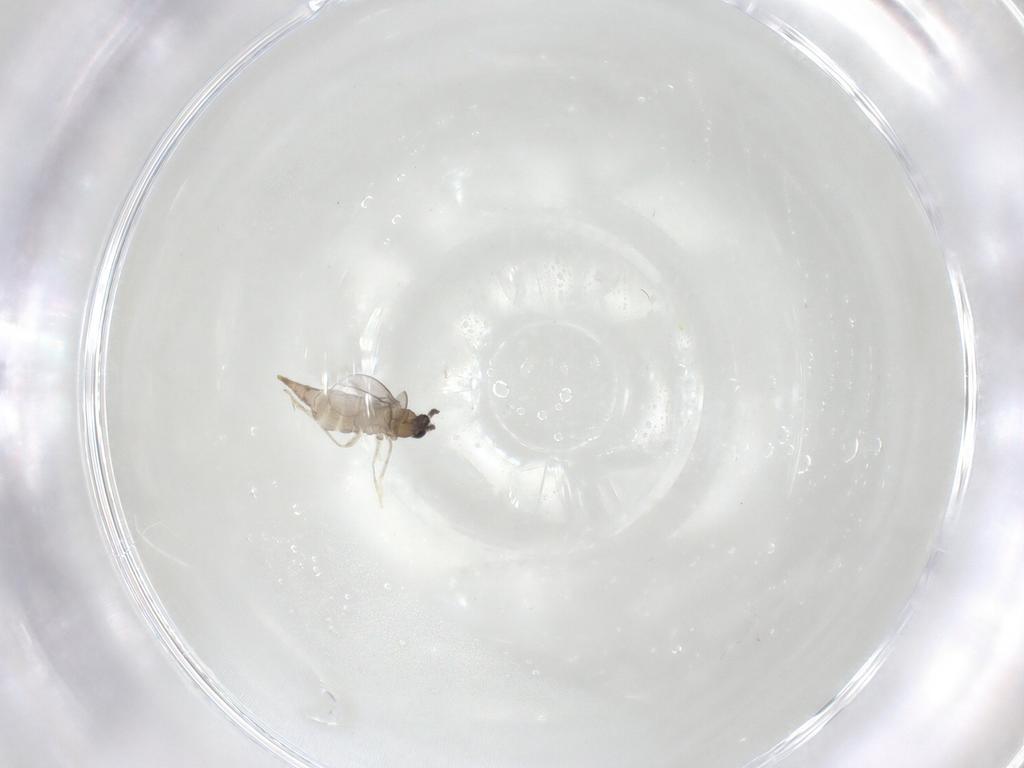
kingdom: Animalia
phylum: Arthropoda
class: Insecta
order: Diptera
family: Cecidomyiidae
